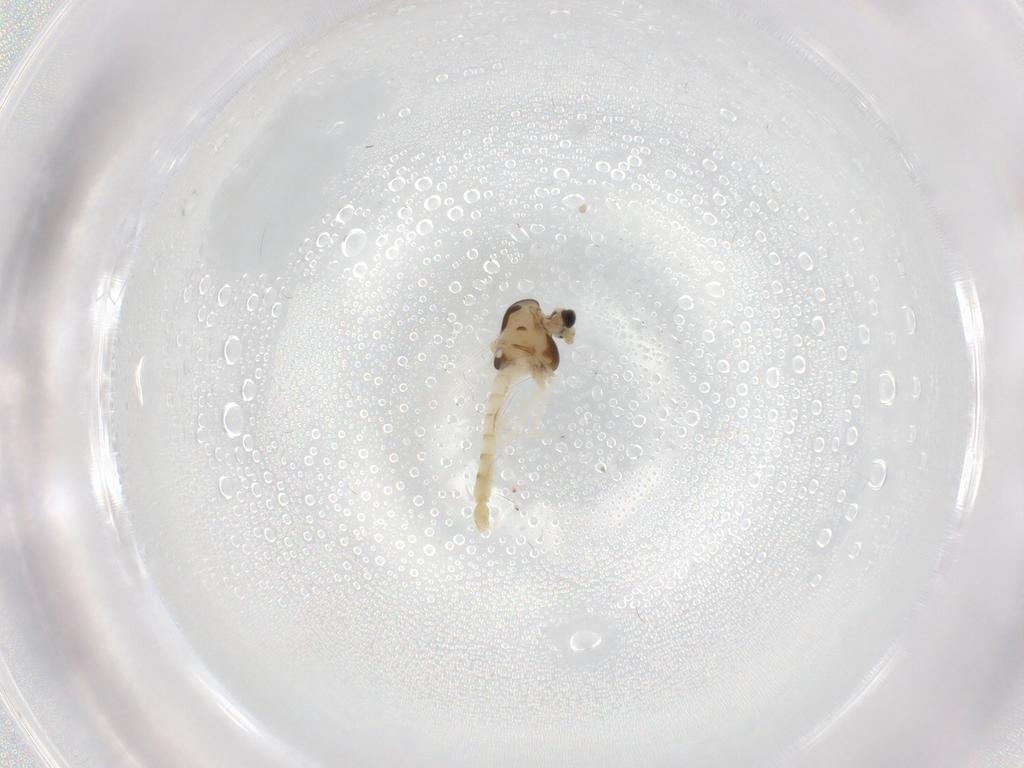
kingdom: Animalia
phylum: Arthropoda
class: Insecta
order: Diptera
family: Chironomidae
